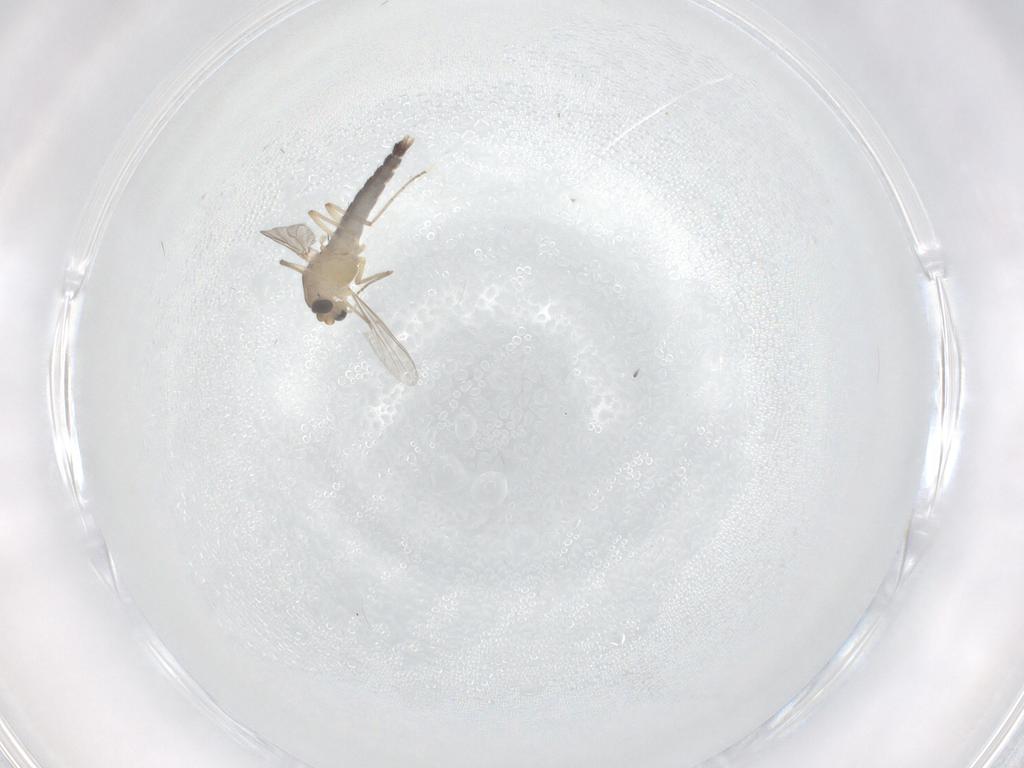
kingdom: Animalia
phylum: Arthropoda
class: Insecta
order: Diptera
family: Chironomidae
